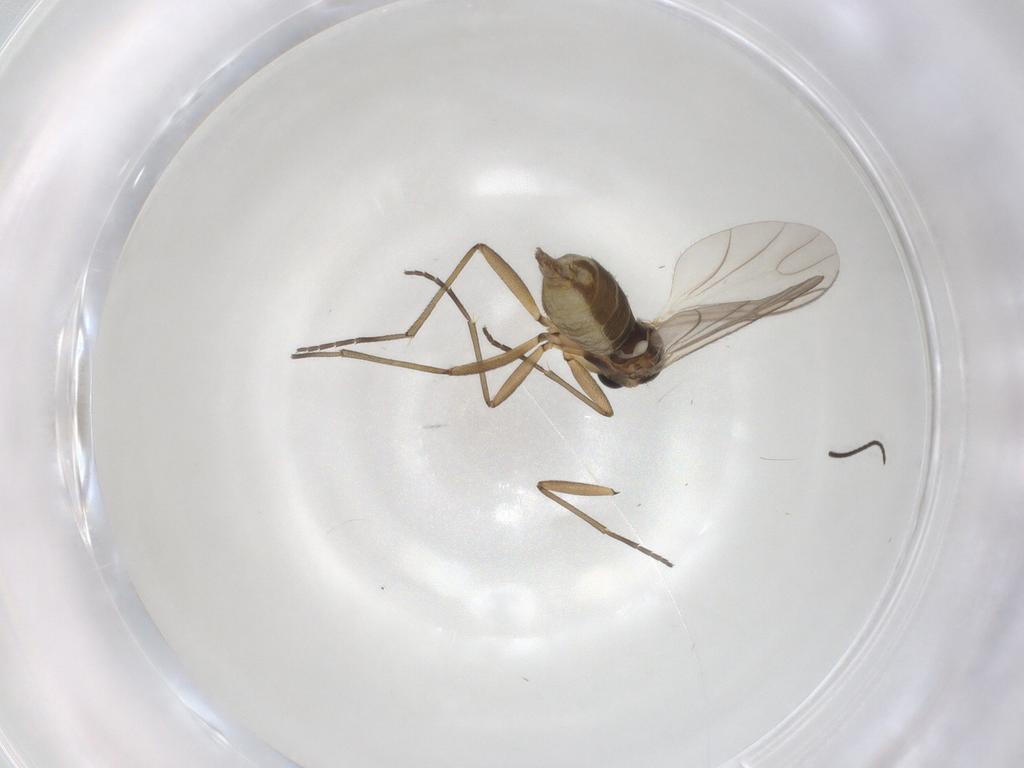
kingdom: Animalia
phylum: Arthropoda
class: Insecta
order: Diptera
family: Sciaridae
